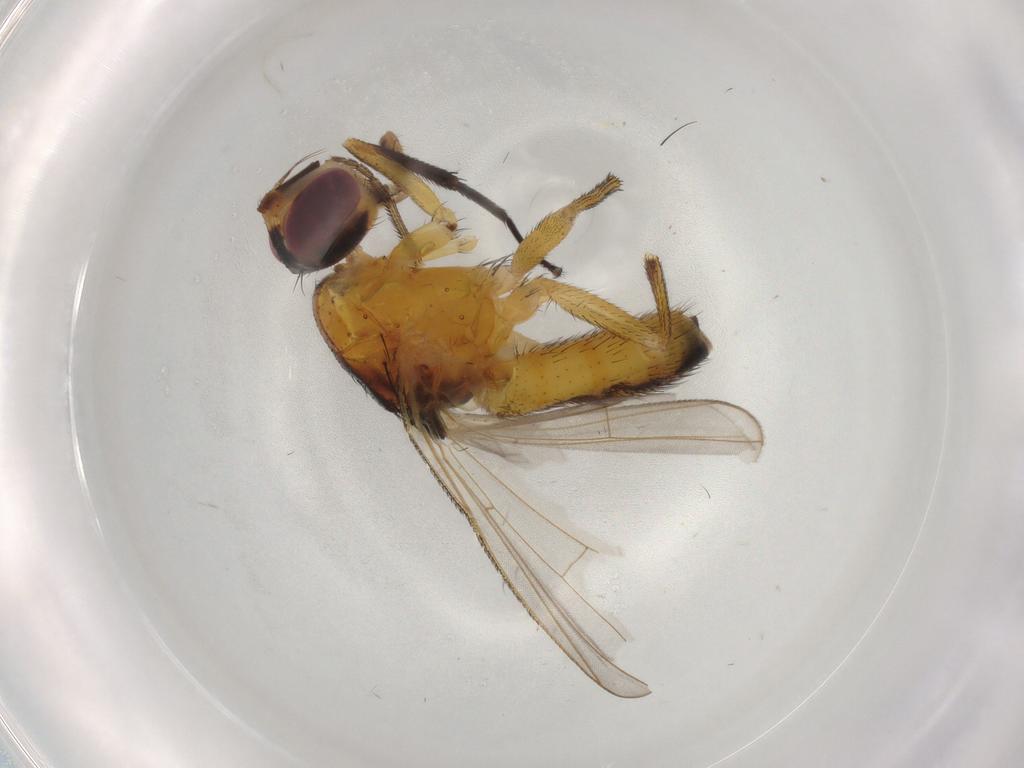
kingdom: Animalia
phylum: Arthropoda
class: Insecta
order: Diptera
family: Muscidae
